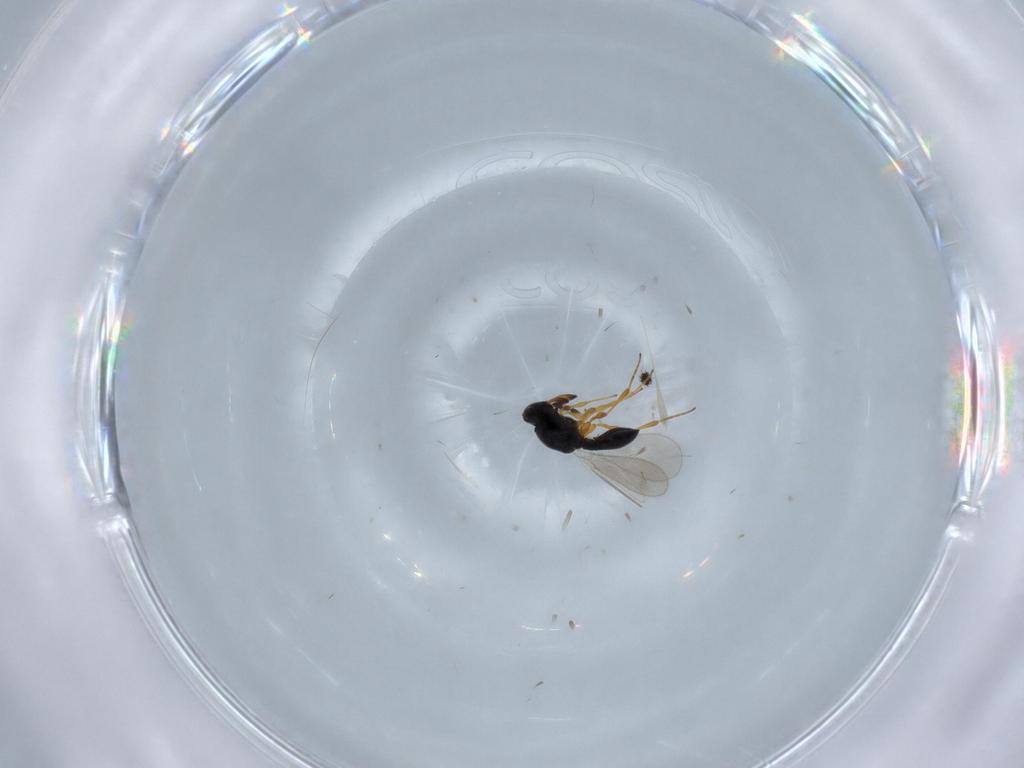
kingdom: Animalia
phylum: Arthropoda
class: Insecta
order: Hymenoptera
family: Platygastridae
